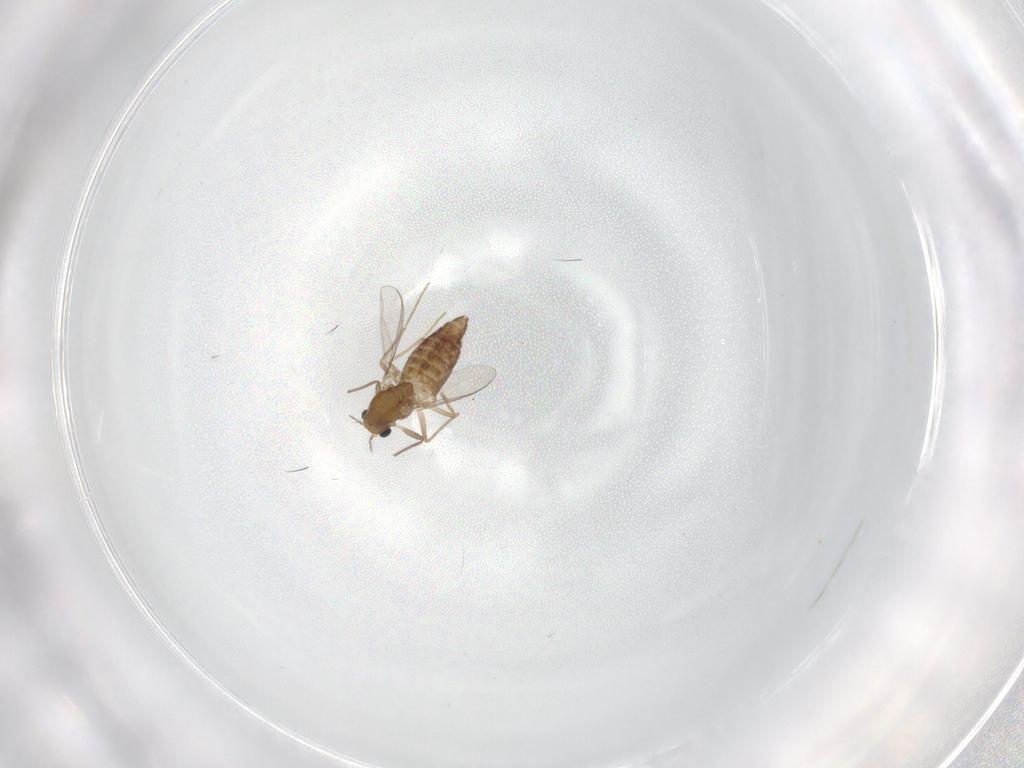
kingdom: Animalia
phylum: Arthropoda
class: Insecta
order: Diptera
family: Chironomidae
